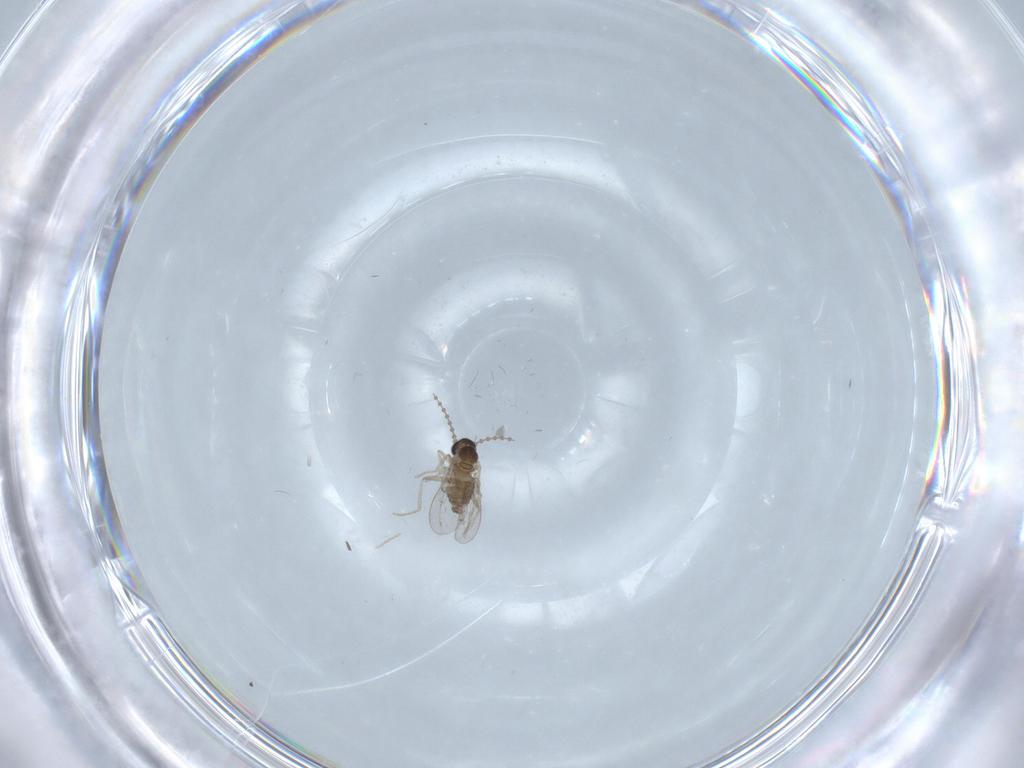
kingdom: Animalia
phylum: Arthropoda
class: Insecta
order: Diptera
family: Cecidomyiidae
